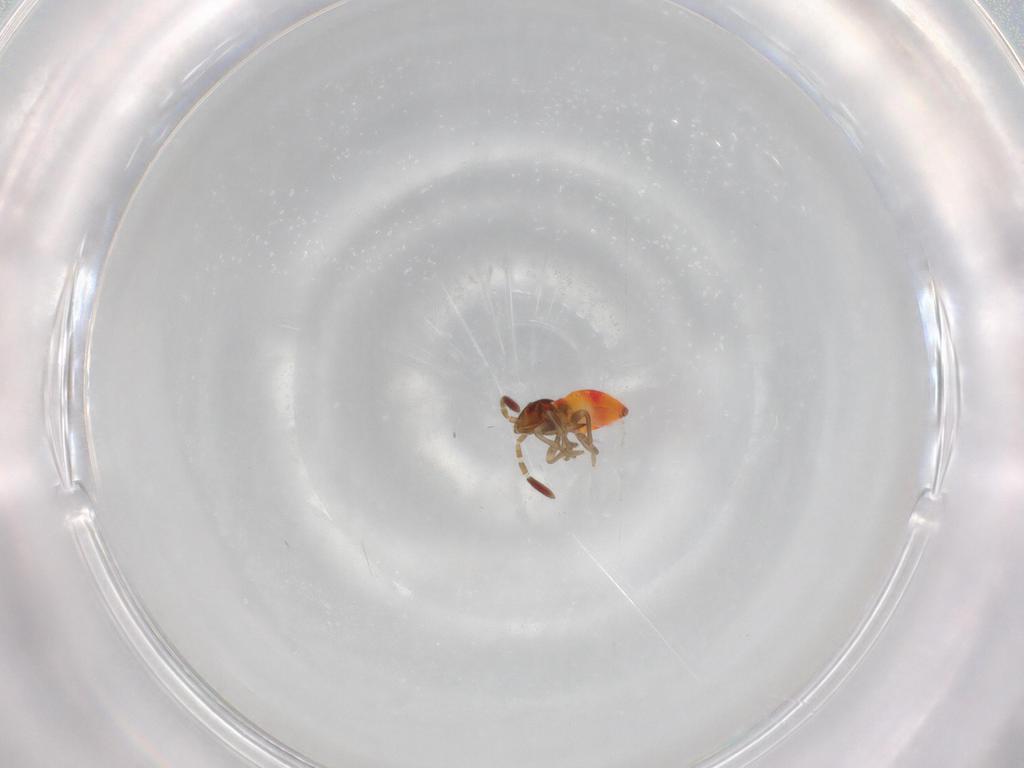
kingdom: Animalia
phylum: Arthropoda
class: Insecta
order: Hemiptera
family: Rhyparochromidae
